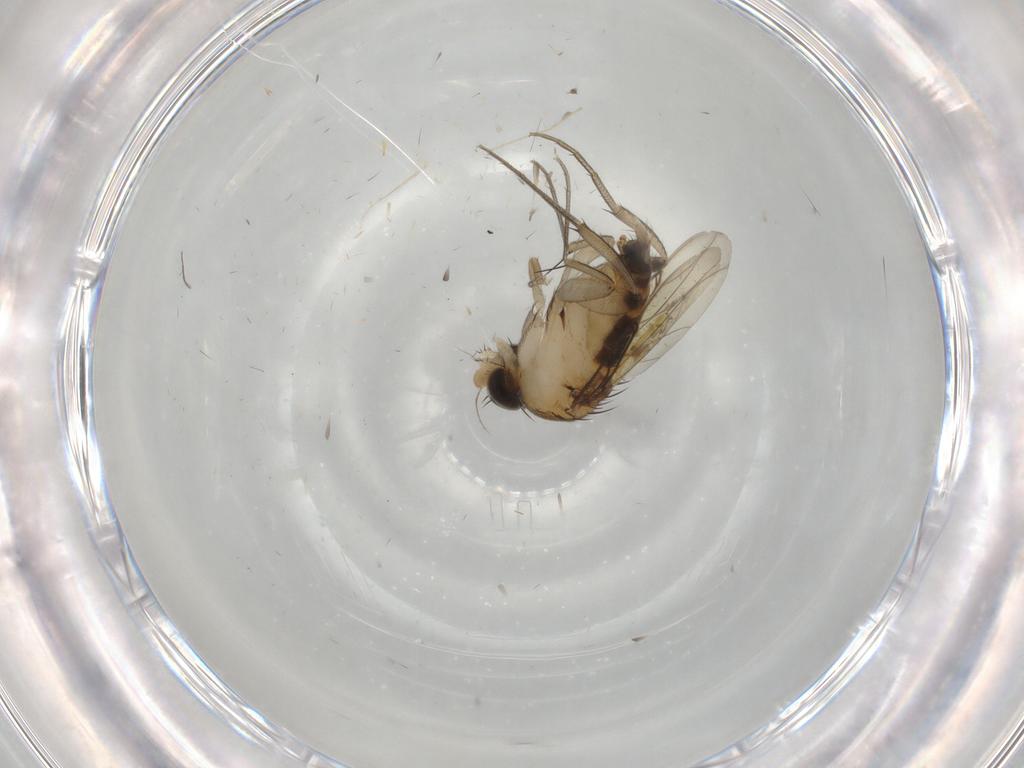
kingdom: Animalia
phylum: Arthropoda
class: Insecta
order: Diptera
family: Phoridae
